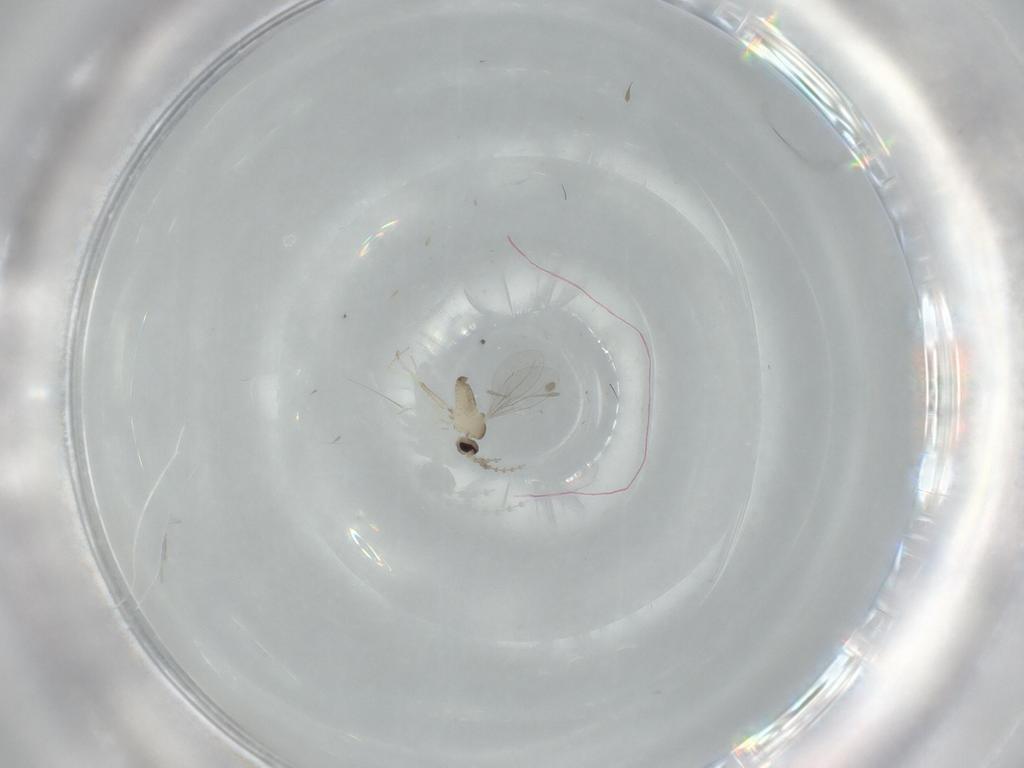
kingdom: Animalia
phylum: Arthropoda
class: Insecta
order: Diptera
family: Cecidomyiidae
